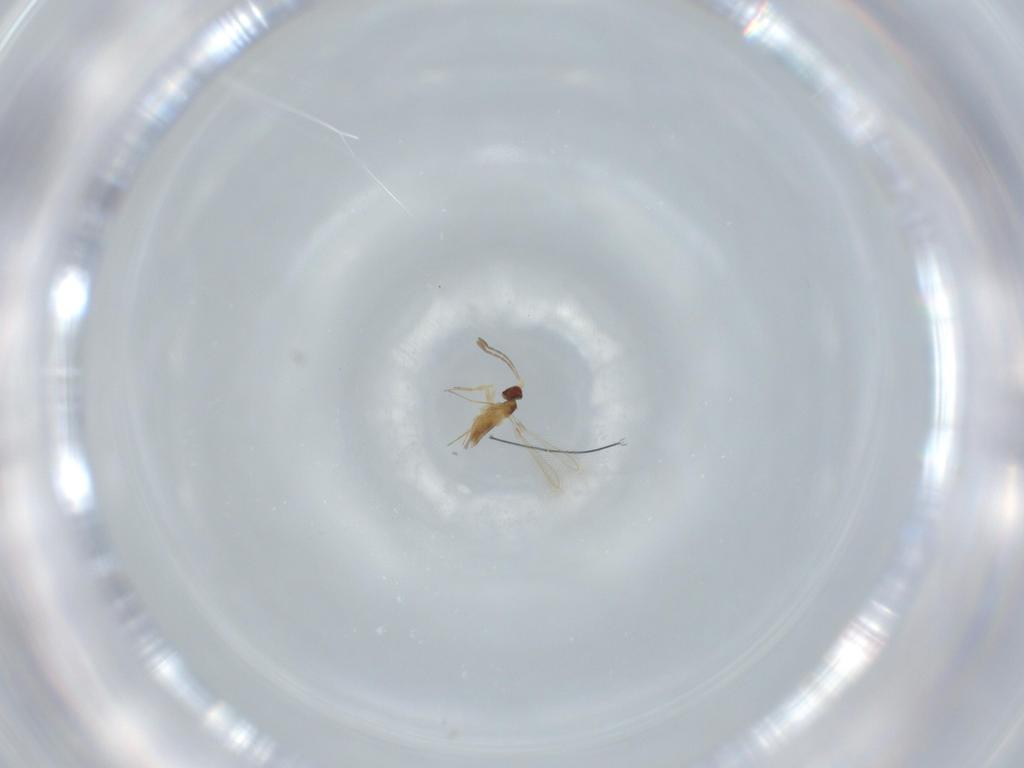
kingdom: Animalia
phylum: Arthropoda
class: Insecta
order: Hymenoptera
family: Mymaridae
